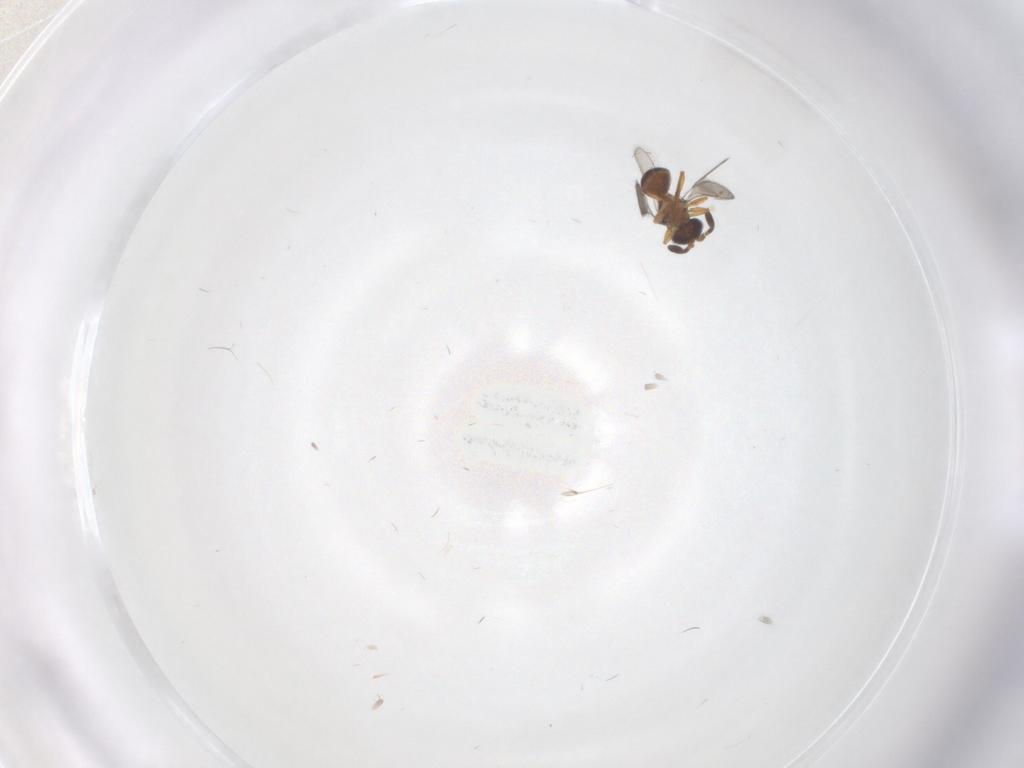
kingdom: Animalia
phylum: Arthropoda
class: Insecta
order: Hymenoptera
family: Scelionidae
